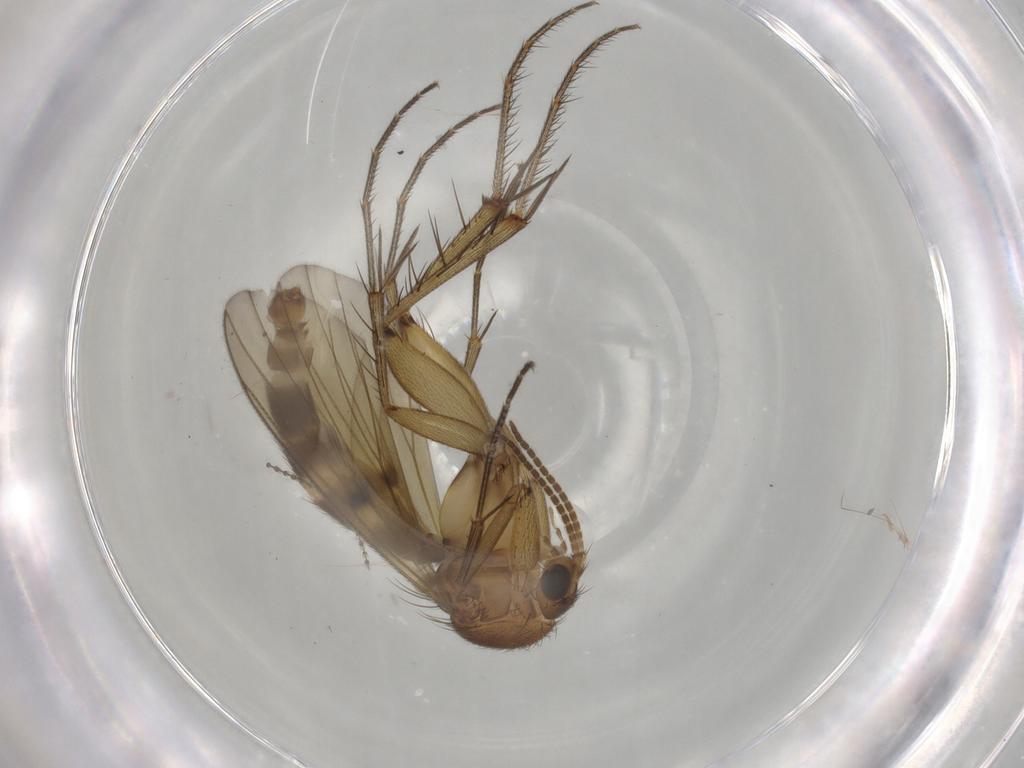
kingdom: Animalia
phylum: Arthropoda
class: Insecta
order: Diptera
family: Mycetophilidae
